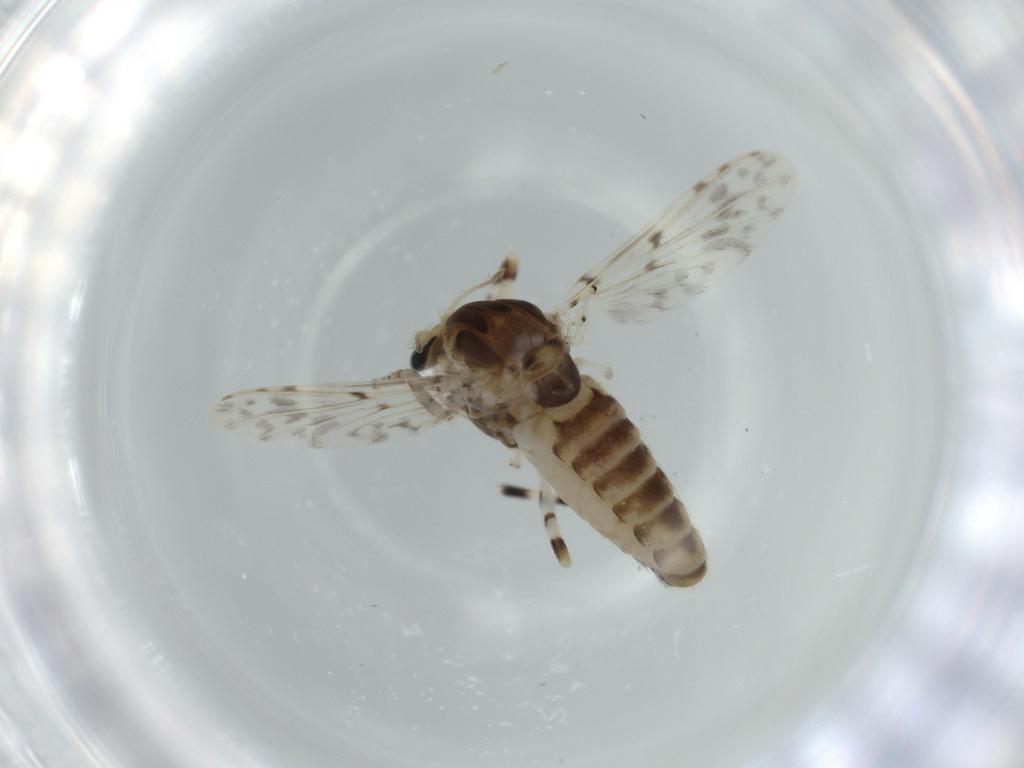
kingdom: Animalia
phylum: Arthropoda
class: Insecta
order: Diptera
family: Chironomidae
